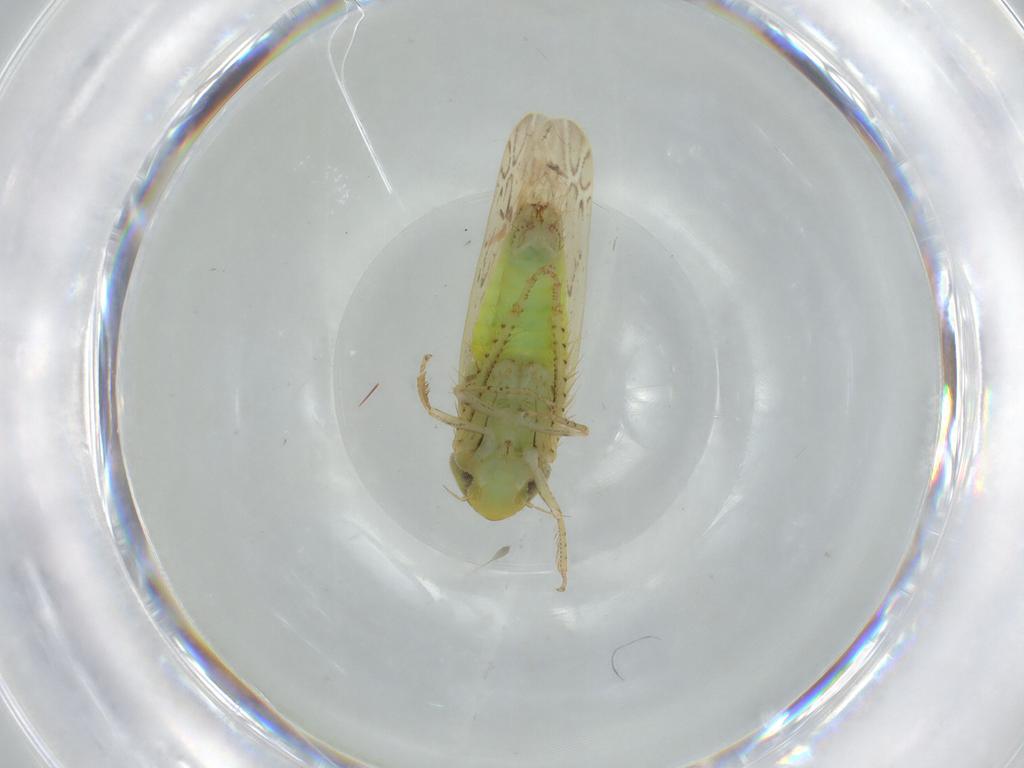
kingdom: Animalia
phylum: Arthropoda
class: Insecta
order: Hemiptera
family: Cicadellidae
